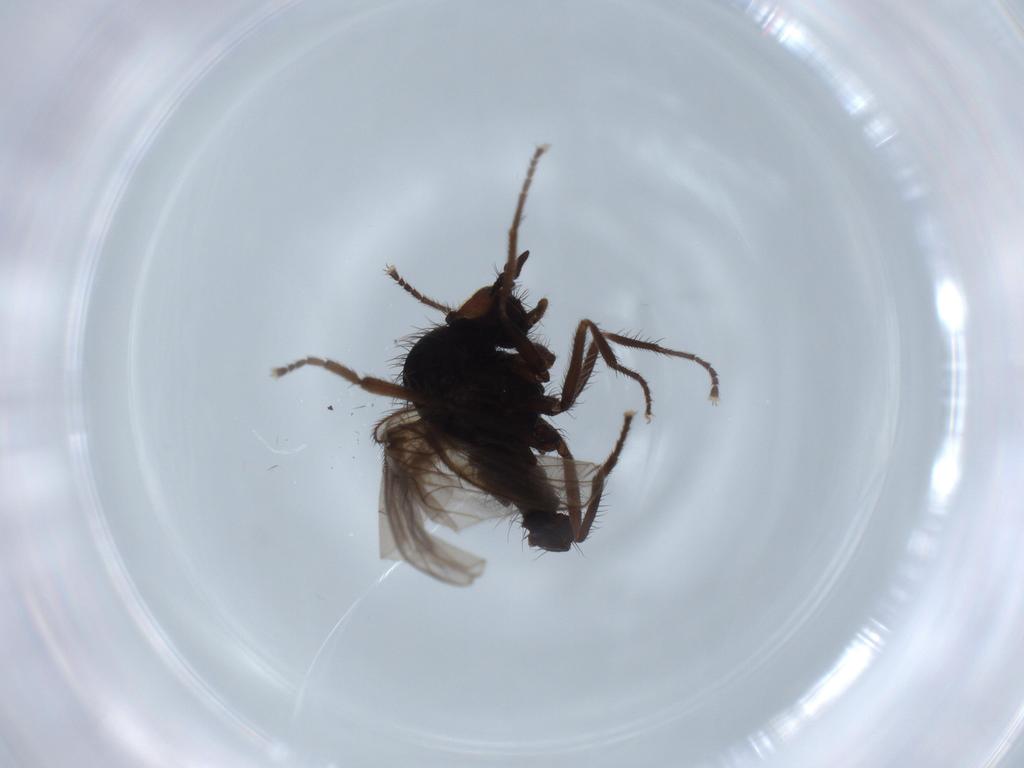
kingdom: Animalia
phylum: Arthropoda
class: Insecta
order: Diptera
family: Dolichopodidae
